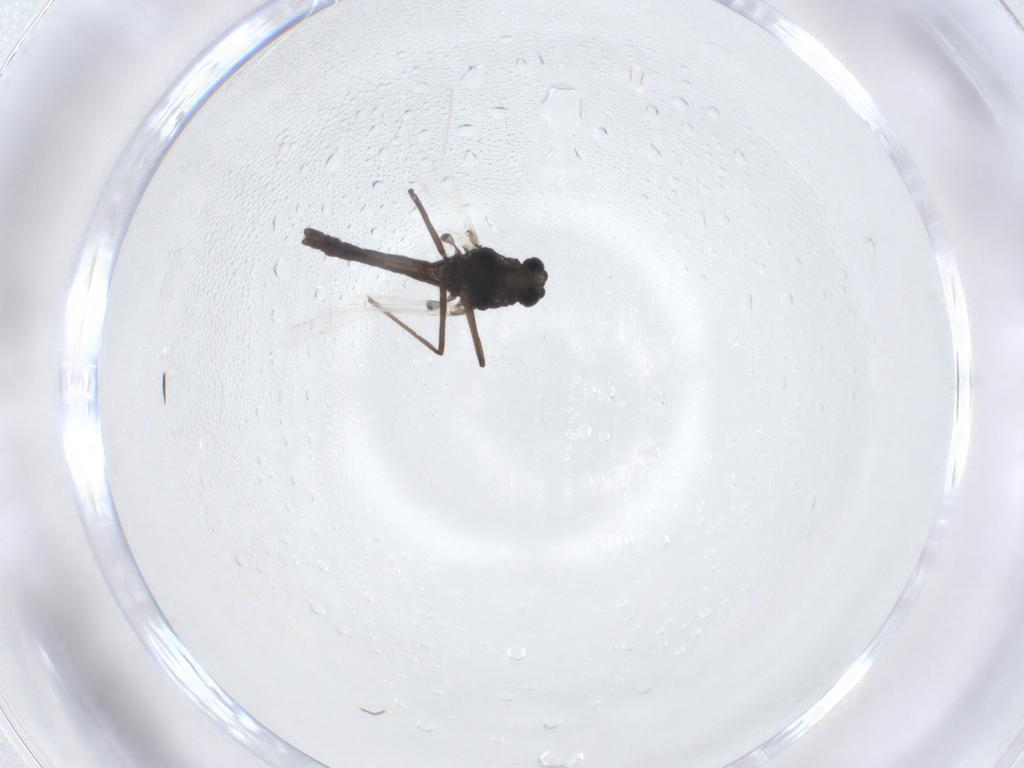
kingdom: Animalia
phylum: Arthropoda
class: Insecta
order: Diptera
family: Chironomidae
